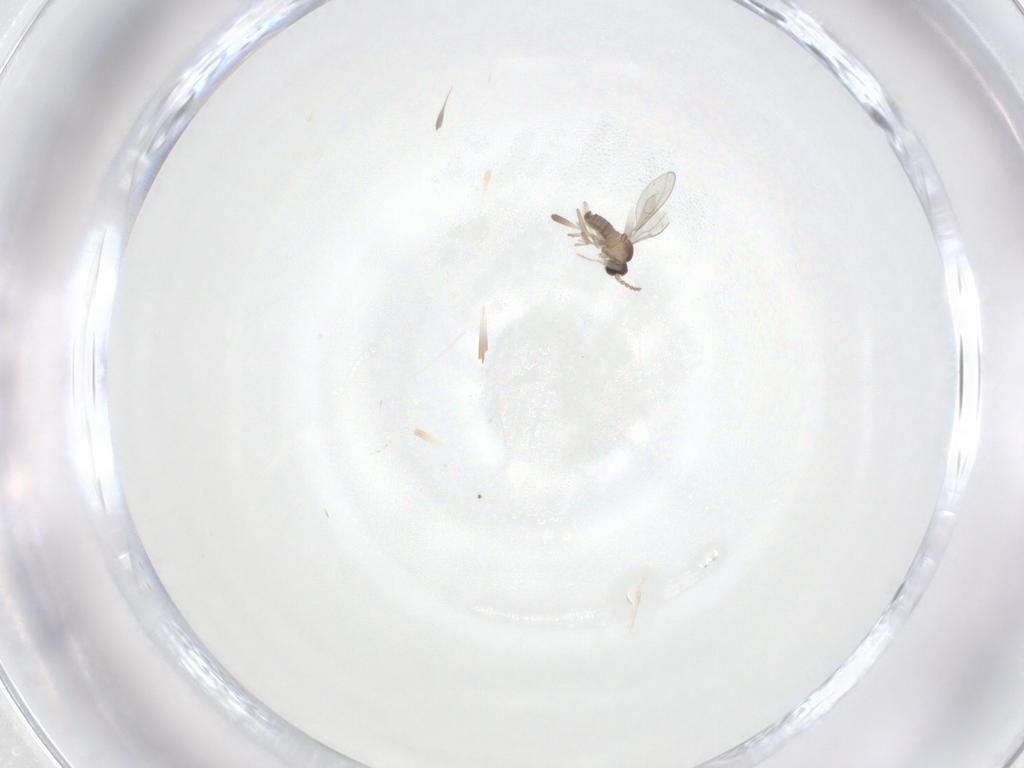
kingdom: Animalia
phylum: Arthropoda
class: Insecta
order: Diptera
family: Cecidomyiidae
